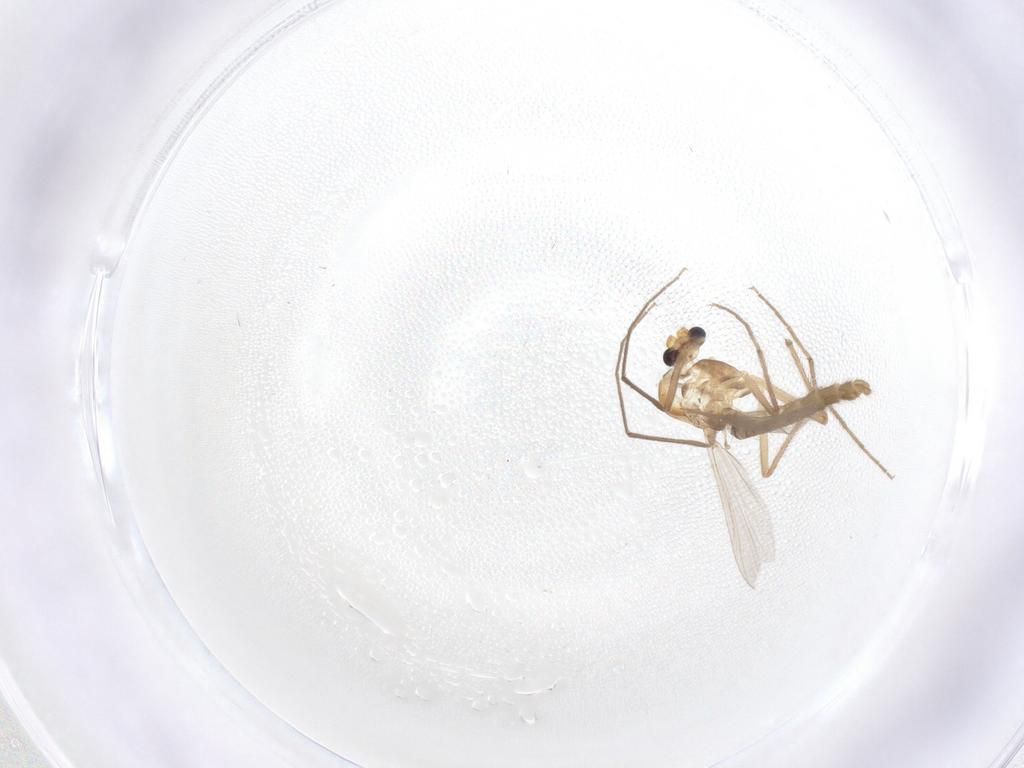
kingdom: Animalia
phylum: Arthropoda
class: Insecta
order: Diptera
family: Chironomidae
